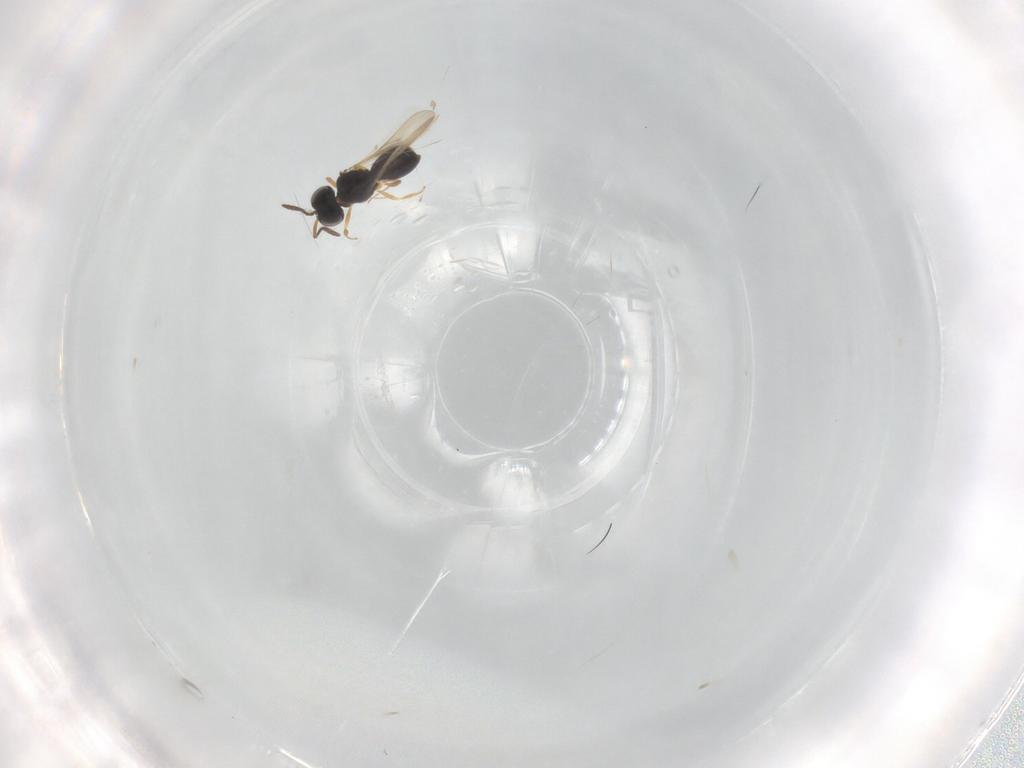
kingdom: Animalia
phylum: Arthropoda
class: Insecta
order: Hymenoptera
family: Scelionidae
